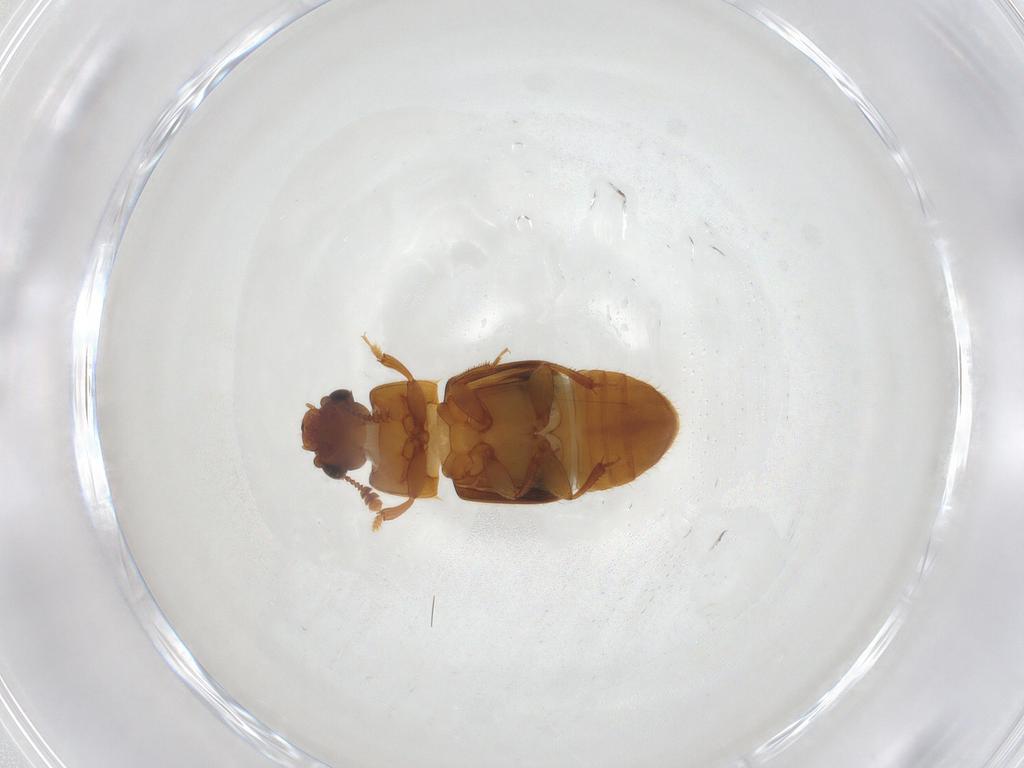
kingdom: Animalia
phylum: Arthropoda
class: Insecta
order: Coleoptera
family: Nitidulidae
